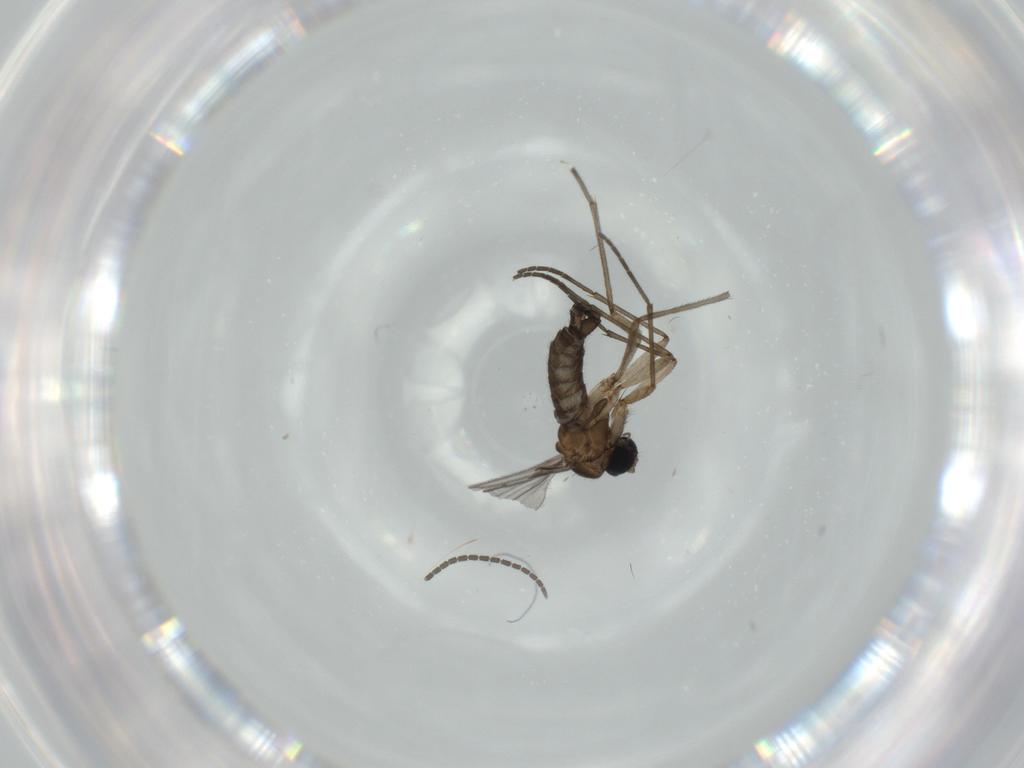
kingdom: Animalia
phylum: Arthropoda
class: Insecta
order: Diptera
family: Sciaridae
